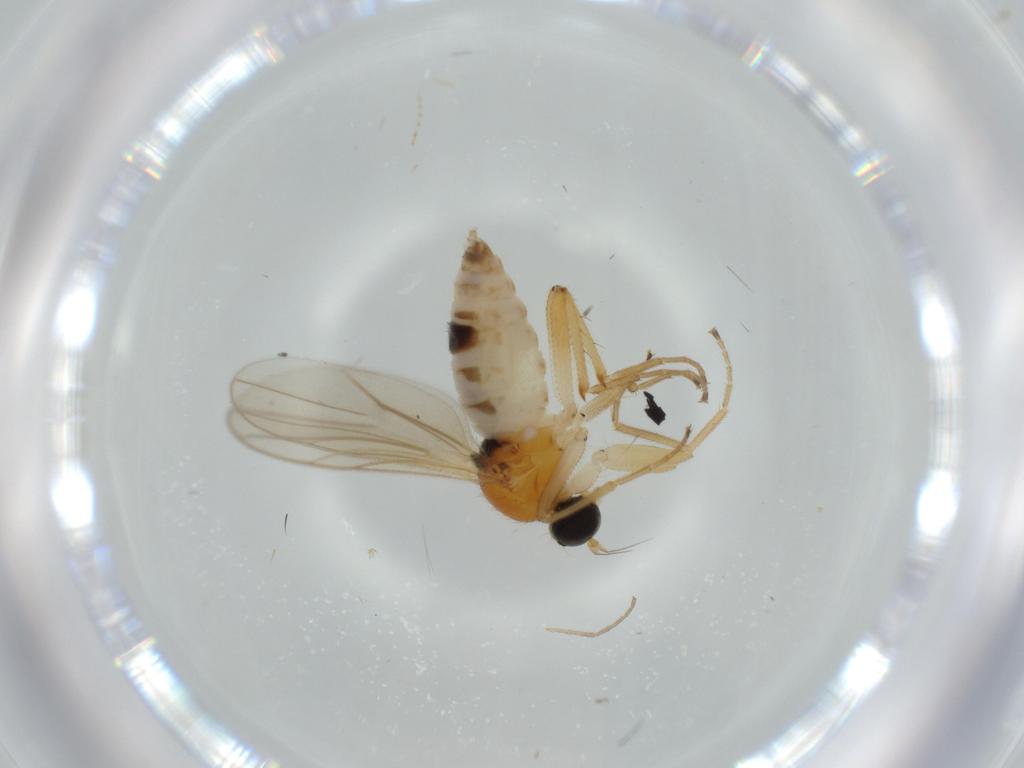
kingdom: Animalia
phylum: Arthropoda
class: Insecta
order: Diptera
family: Hybotidae
